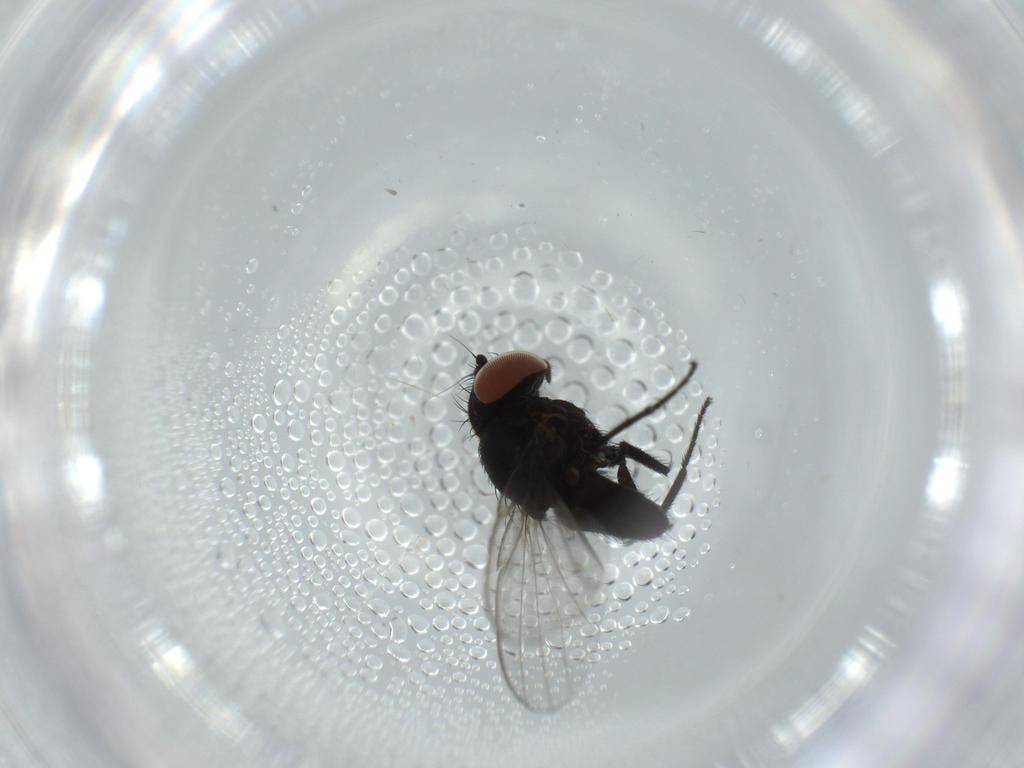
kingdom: Animalia
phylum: Arthropoda
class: Insecta
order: Diptera
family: Milichiidae
